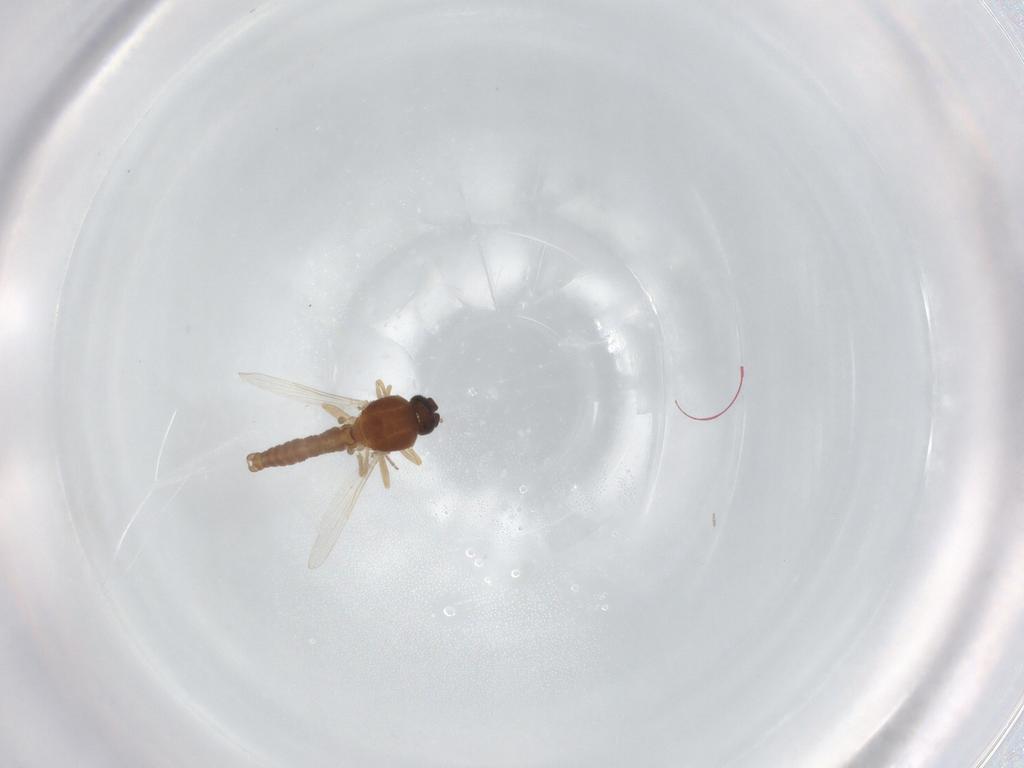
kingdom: Animalia
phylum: Arthropoda
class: Insecta
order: Diptera
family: Ceratopogonidae
